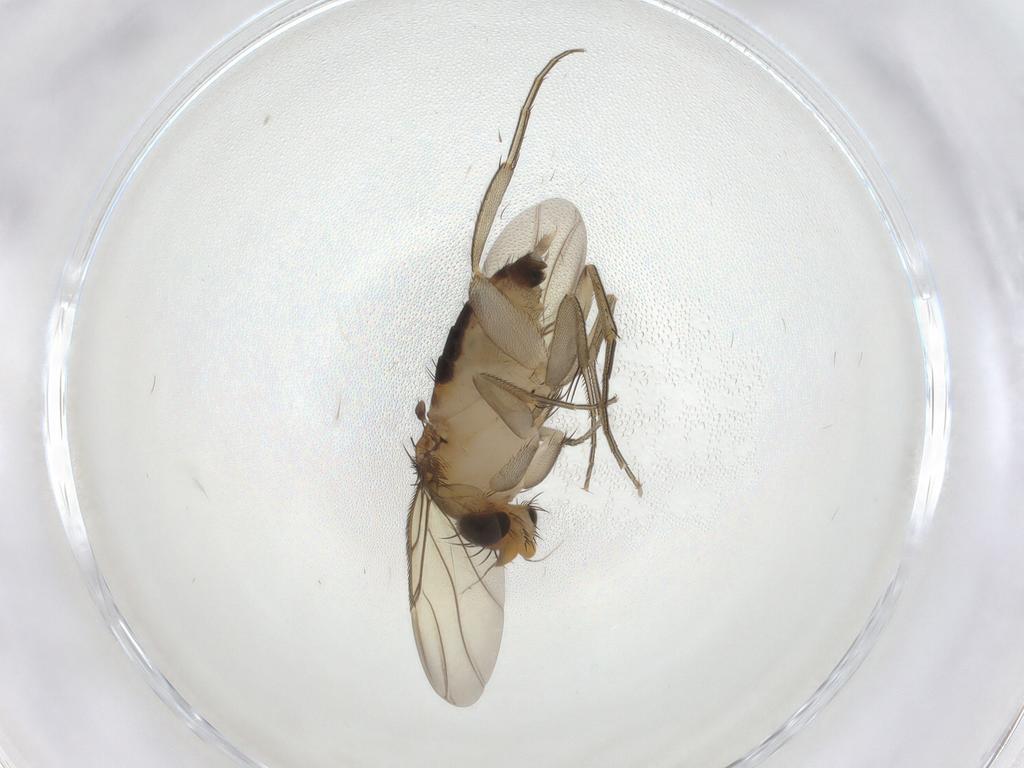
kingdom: Animalia
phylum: Arthropoda
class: Insecta
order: Diptera
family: Phoridae
